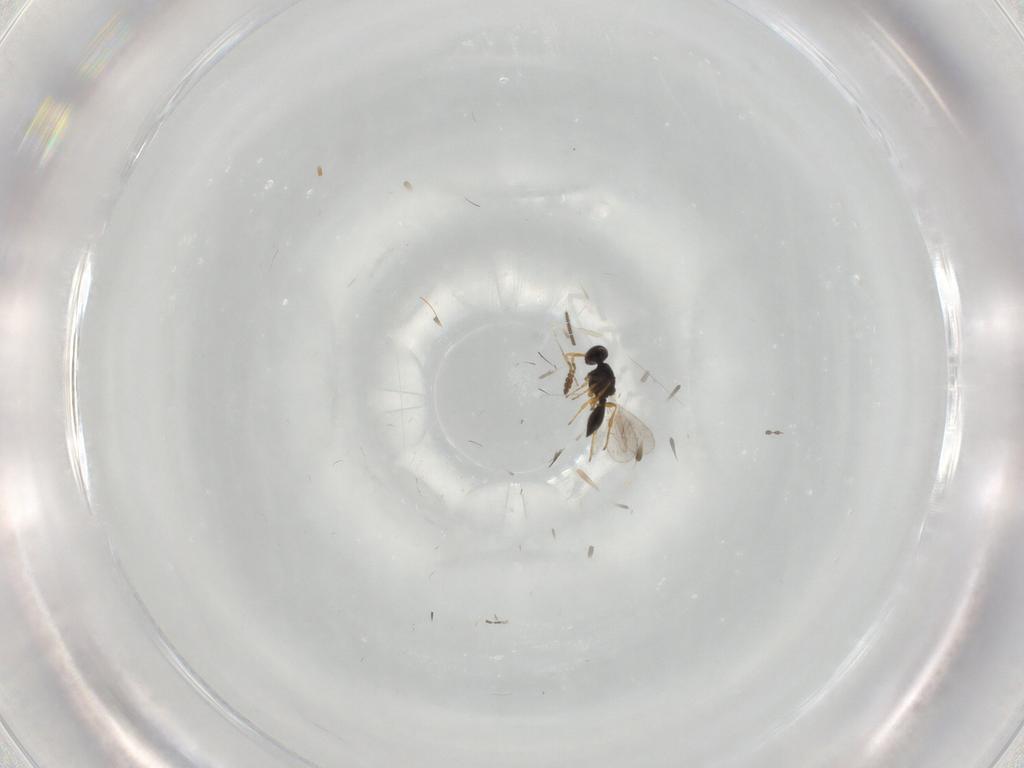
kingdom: Animalia
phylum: Arthropoda
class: Insecta
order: Hymenoptera
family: Platygastridae
